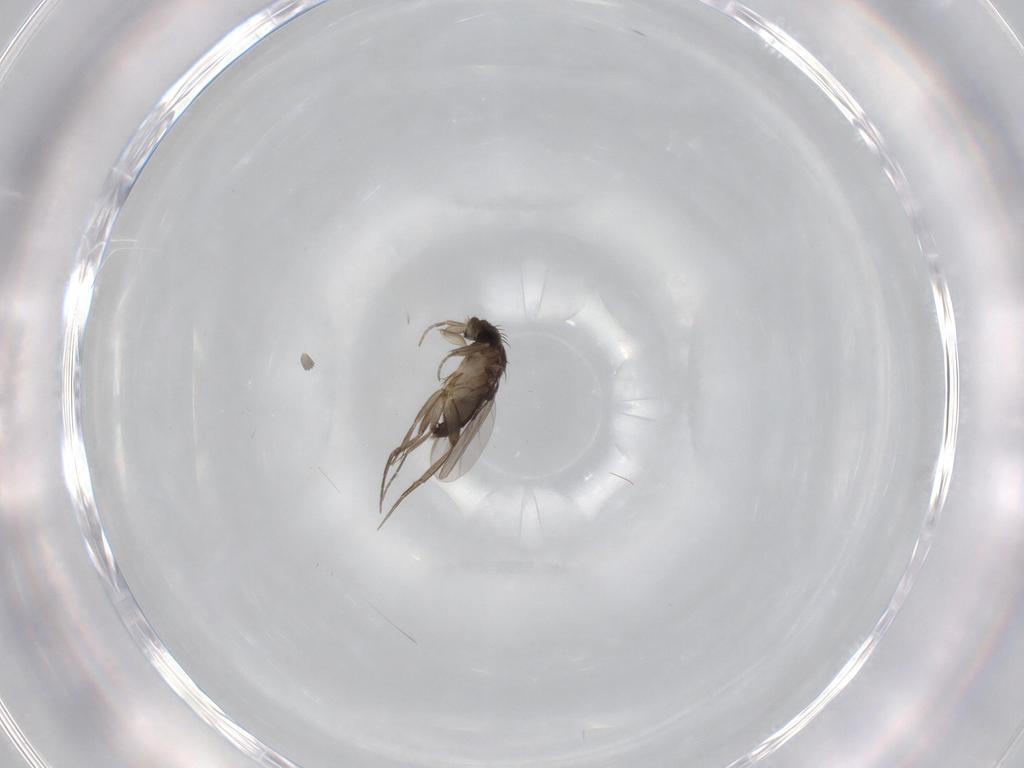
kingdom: Animalia
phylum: Arthropoda
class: Insecta
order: Diptera
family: Phoridae
